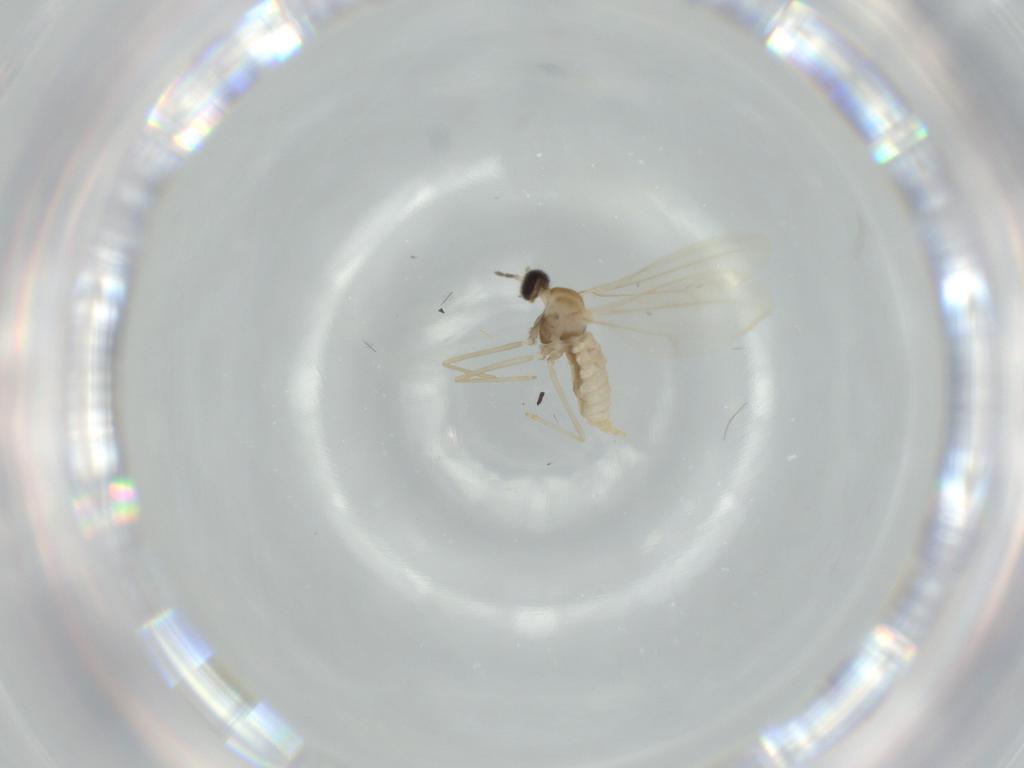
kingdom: Animalia
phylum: Arthropoda
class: Insecta
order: Diptera
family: Cecidomyiidae
